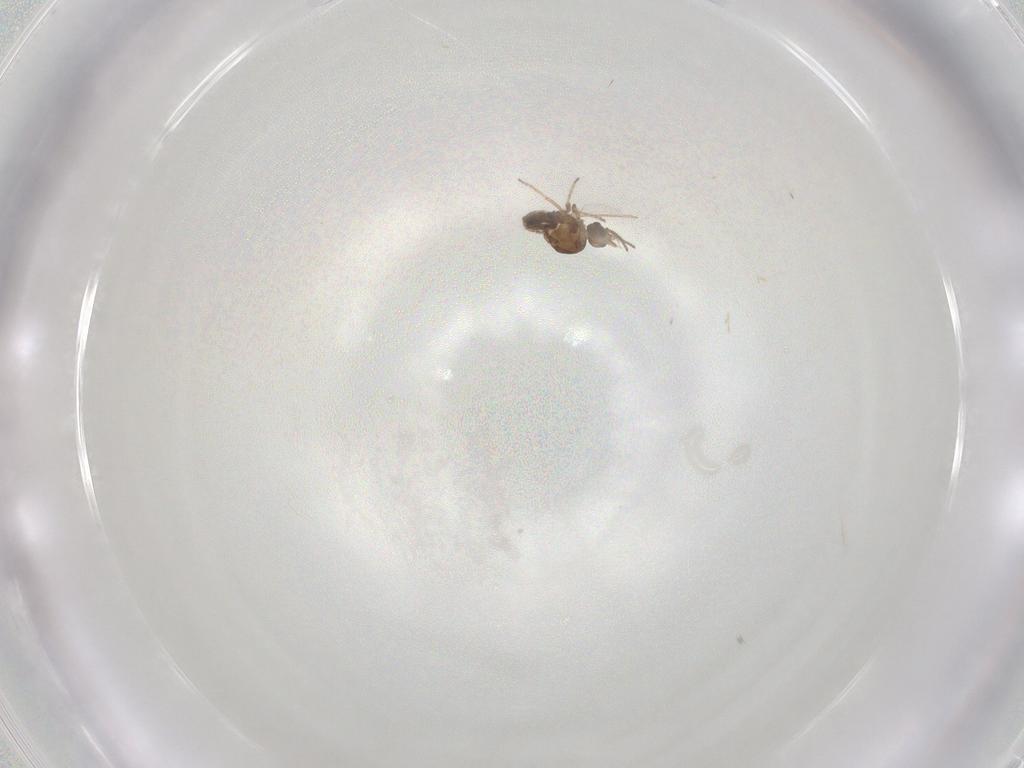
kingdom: Animalia
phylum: Arthropoda
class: Insecta
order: Diptera
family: Ceratopogonidae
